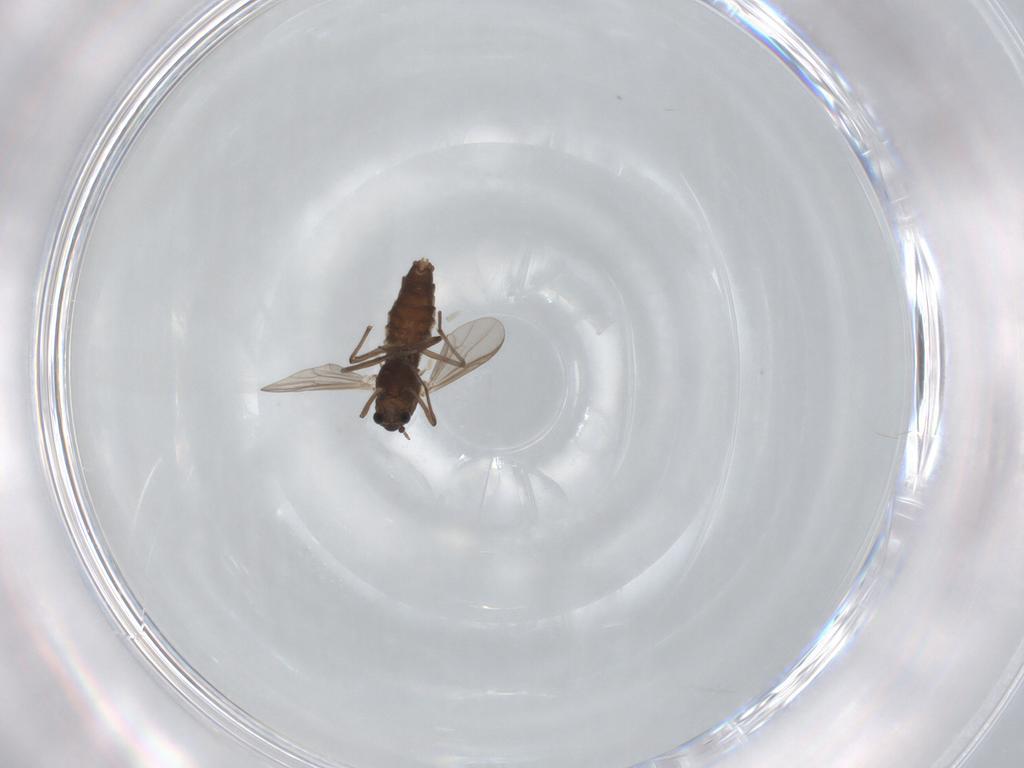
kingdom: Animalia
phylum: Arthropoda
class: Insecta
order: Diptera
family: Chironomidae
